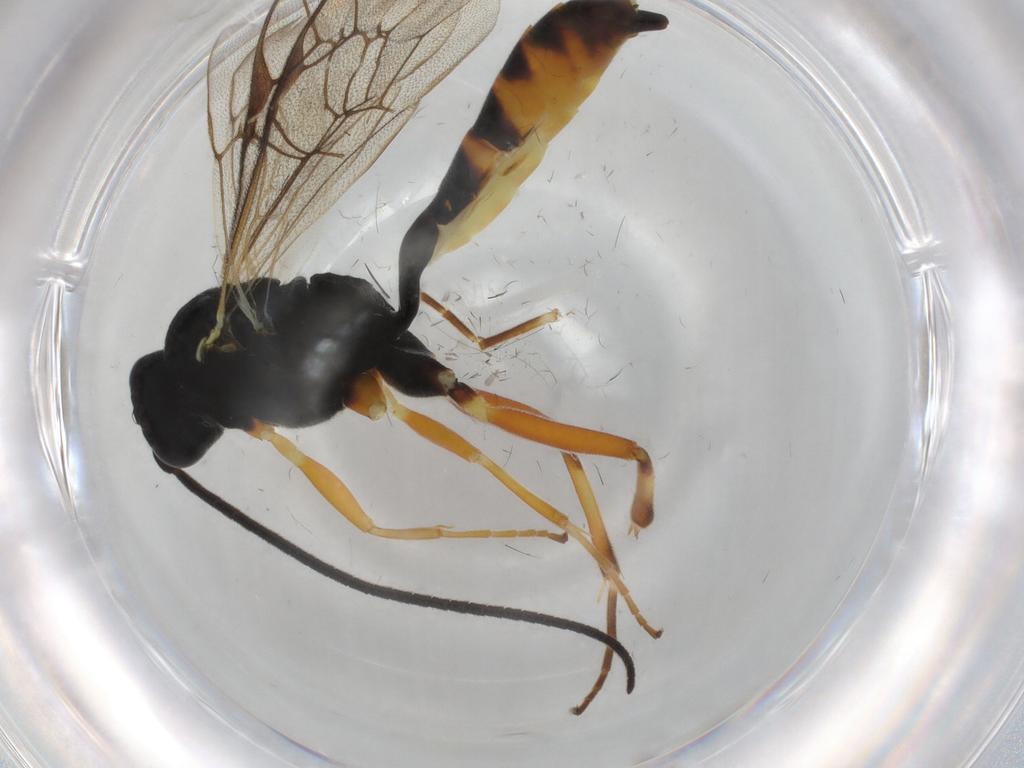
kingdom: Animalia
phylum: Arthropoda
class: Insecta
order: Hymenoptera
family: Ichneumonidae
